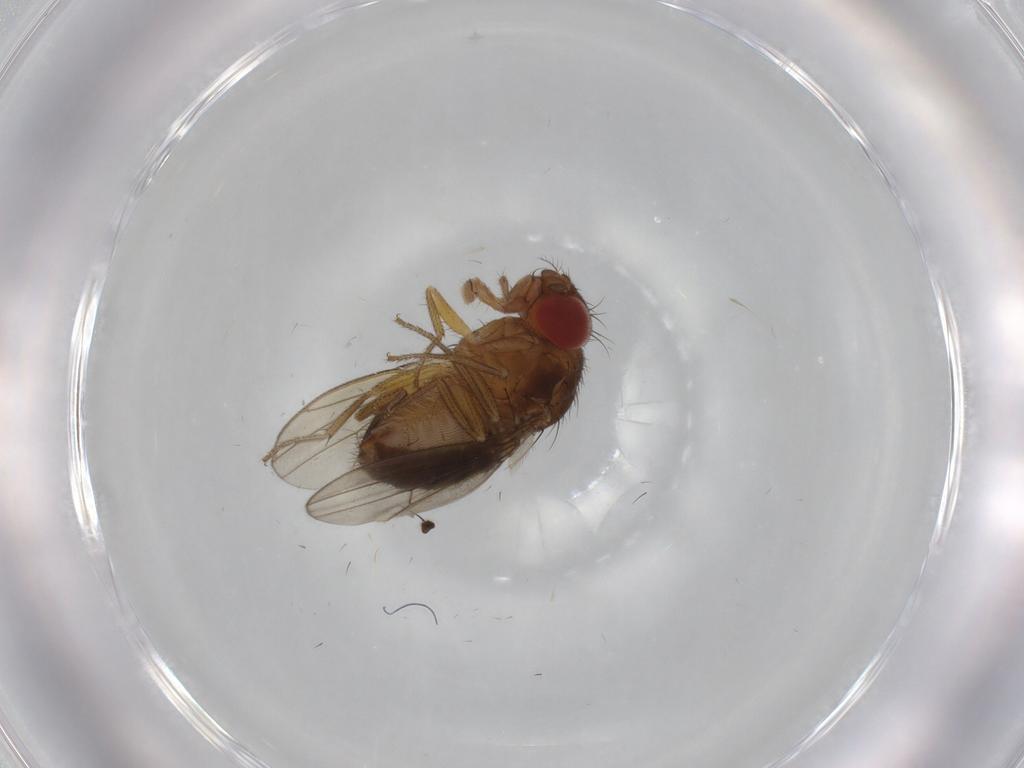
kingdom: Animalia
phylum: Arthropoda
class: Insecta
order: Diptera
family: Drosophilidae
